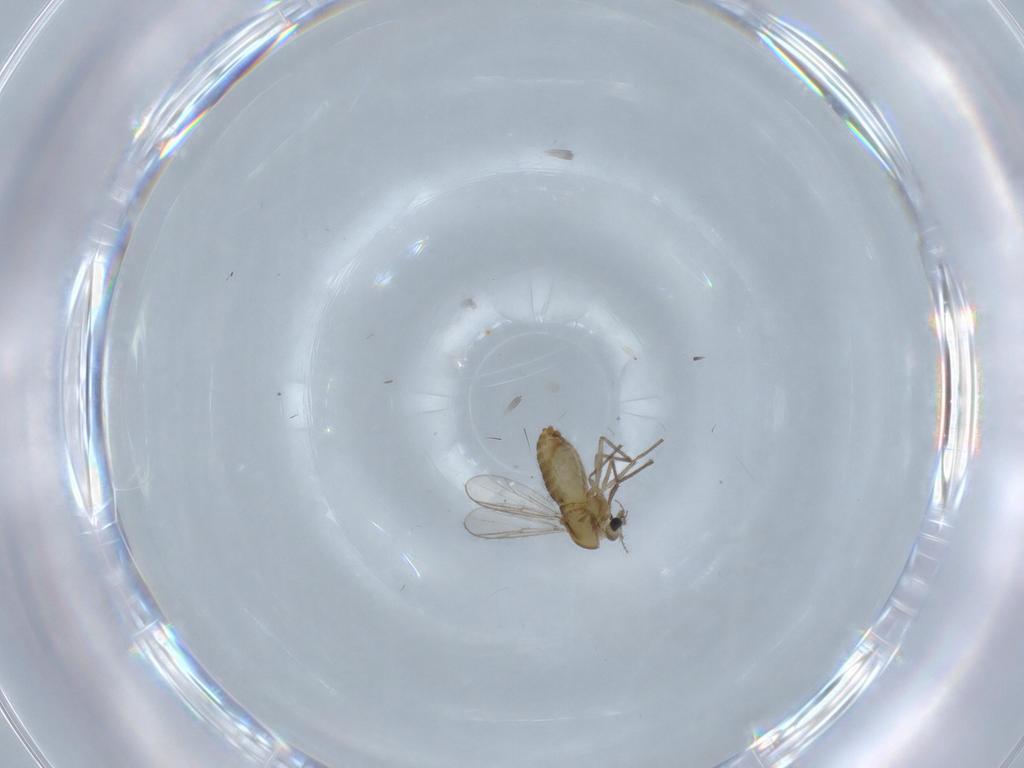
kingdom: Animalia
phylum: Arthropoda
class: Insecta
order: Diptera
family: Chironomidae
